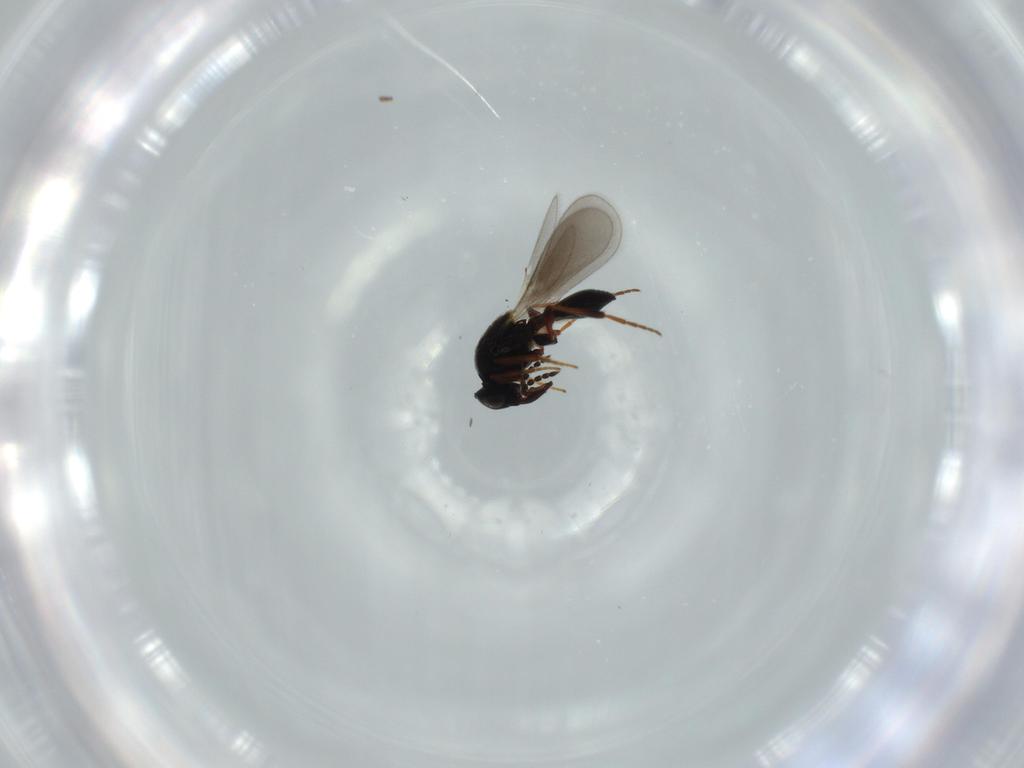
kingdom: Animalia
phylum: Arthropoda
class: Insecta
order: Hymenoptera
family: Platygastridae
